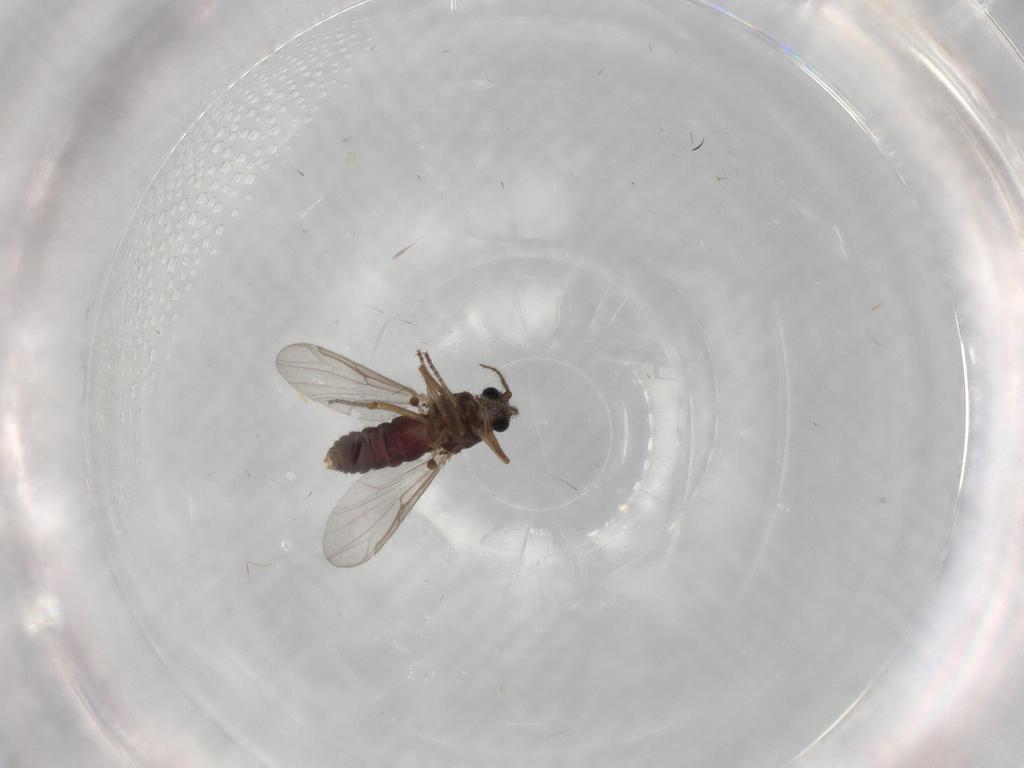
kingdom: Animalia
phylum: Arthropoda
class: Insecta
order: Diptera
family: Ceratopogonidae
